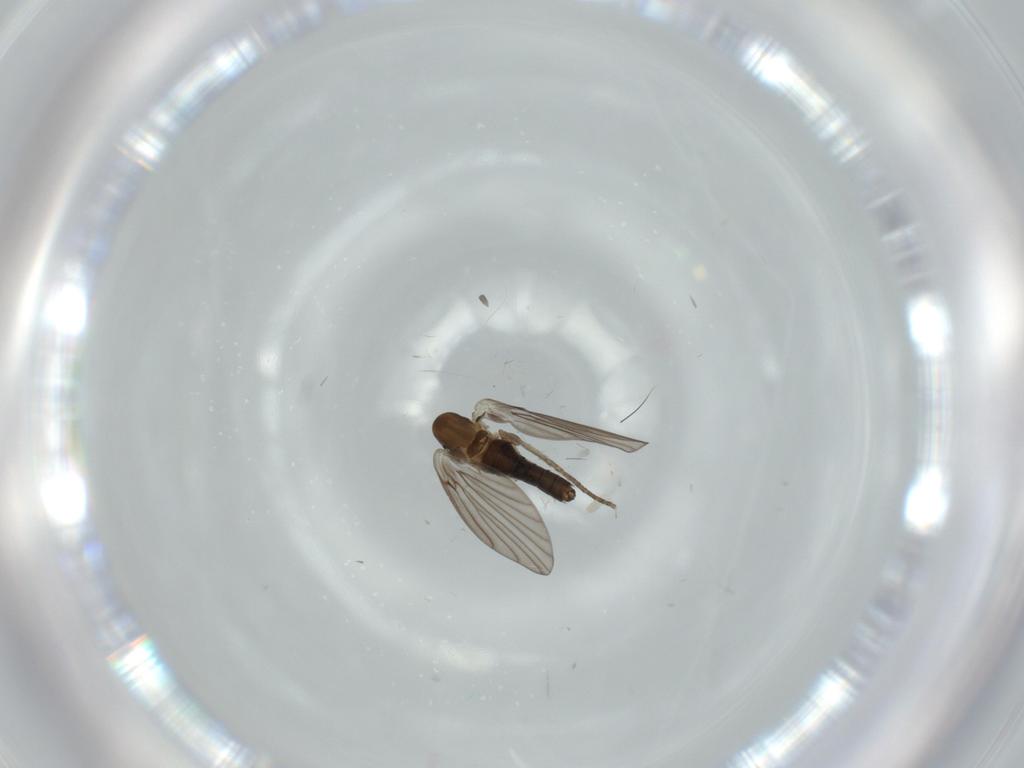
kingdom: Animalia
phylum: Arthropoda
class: Insecta
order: Diptera
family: Psychodidae
